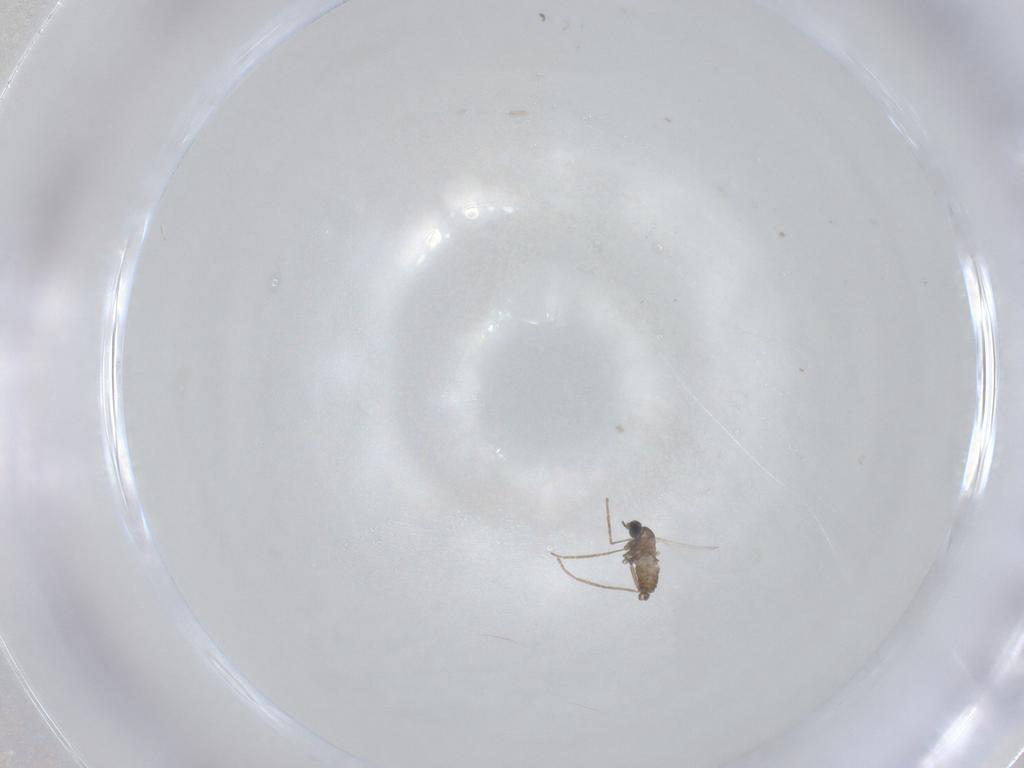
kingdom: Animalia
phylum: Arthropoda
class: Insecta
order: Diptera
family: Cecidomyiidae
